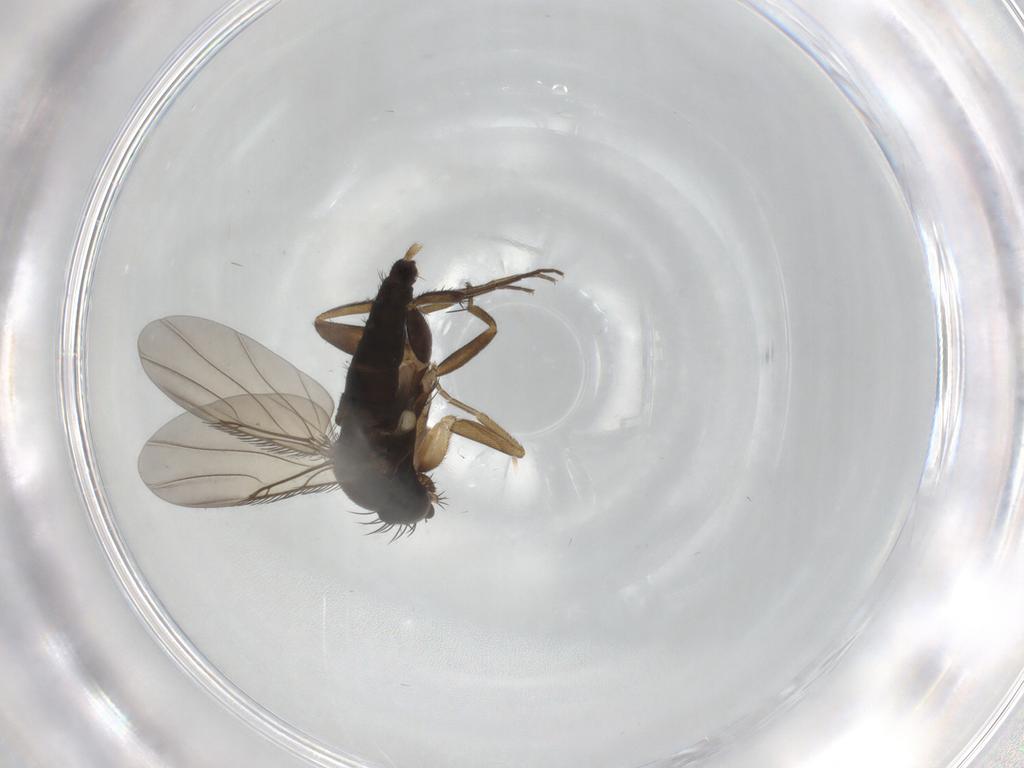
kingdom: Animalia
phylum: Arthropoda
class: Insecta
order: Diptera
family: Phoridae
